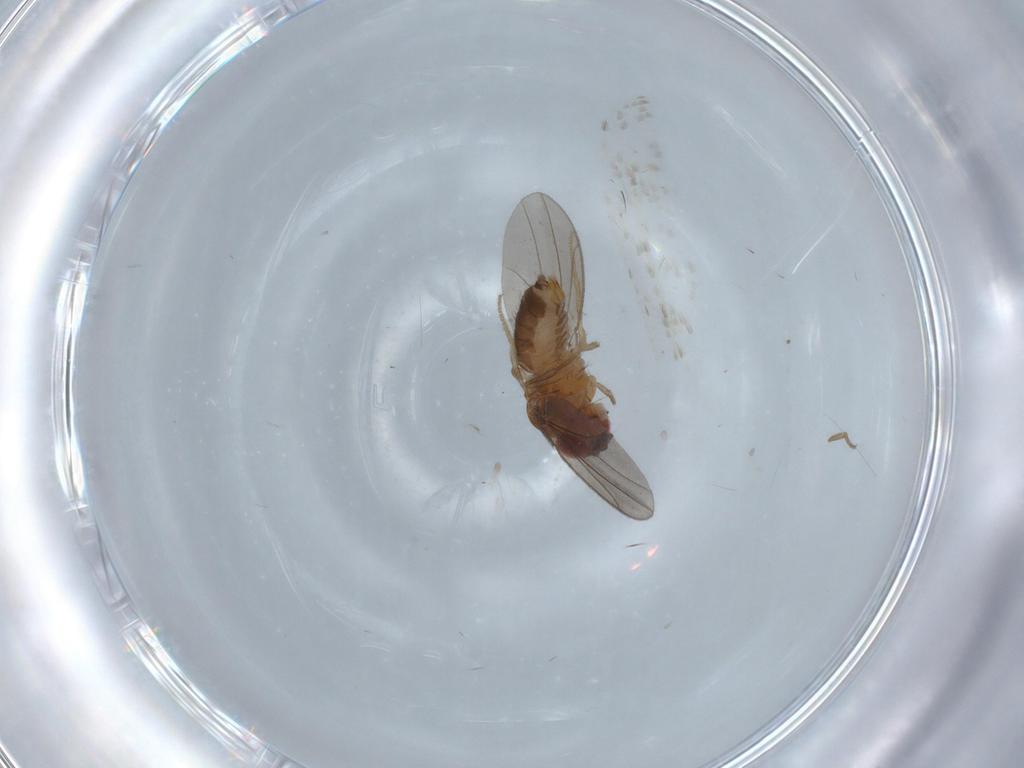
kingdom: Animalia
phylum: Arthropoda
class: Insecta
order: Diptera
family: Drosophilidae
